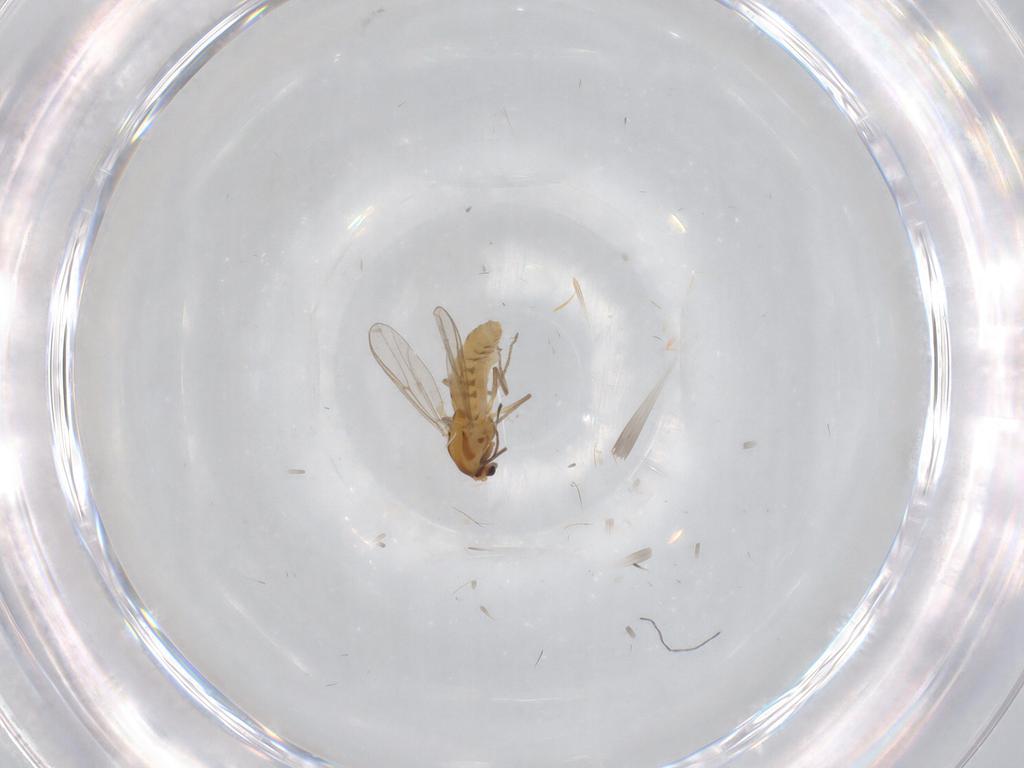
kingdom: Animalia
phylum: Arthropoda
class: Insecta
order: Diptera
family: Chironomidae
